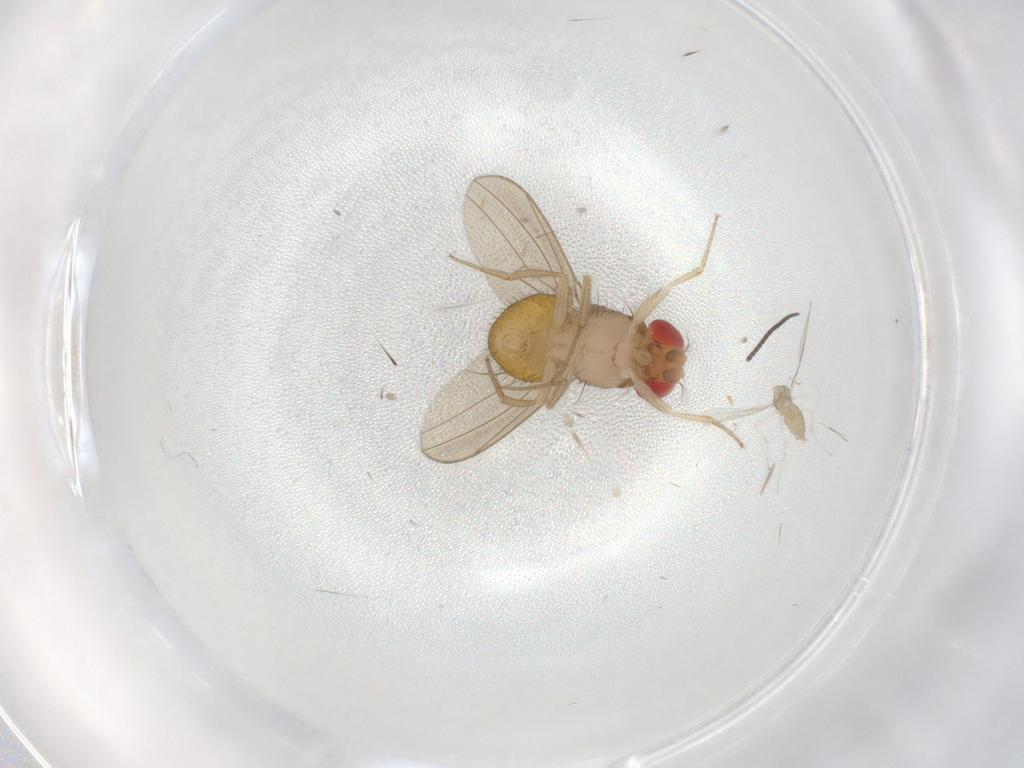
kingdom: Animalia
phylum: Arthropoda
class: Insecta
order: Diptera
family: Drosophilidae
